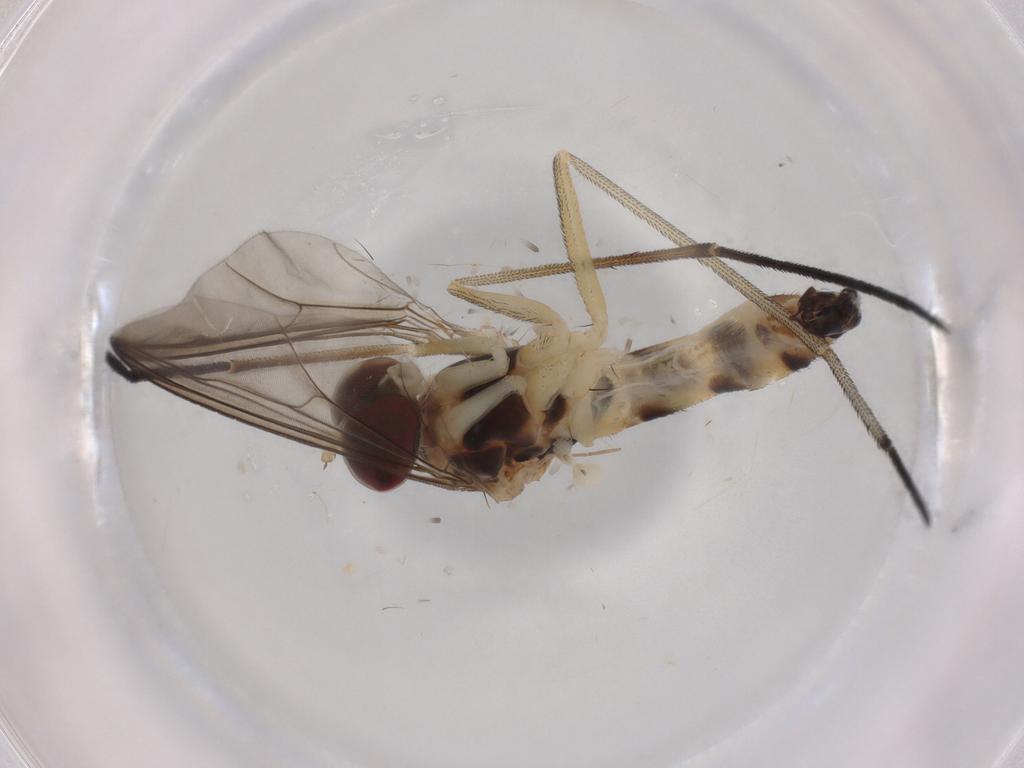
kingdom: Animalia
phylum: Arthropoda
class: Insecta
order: Diptera
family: Chironomidae
